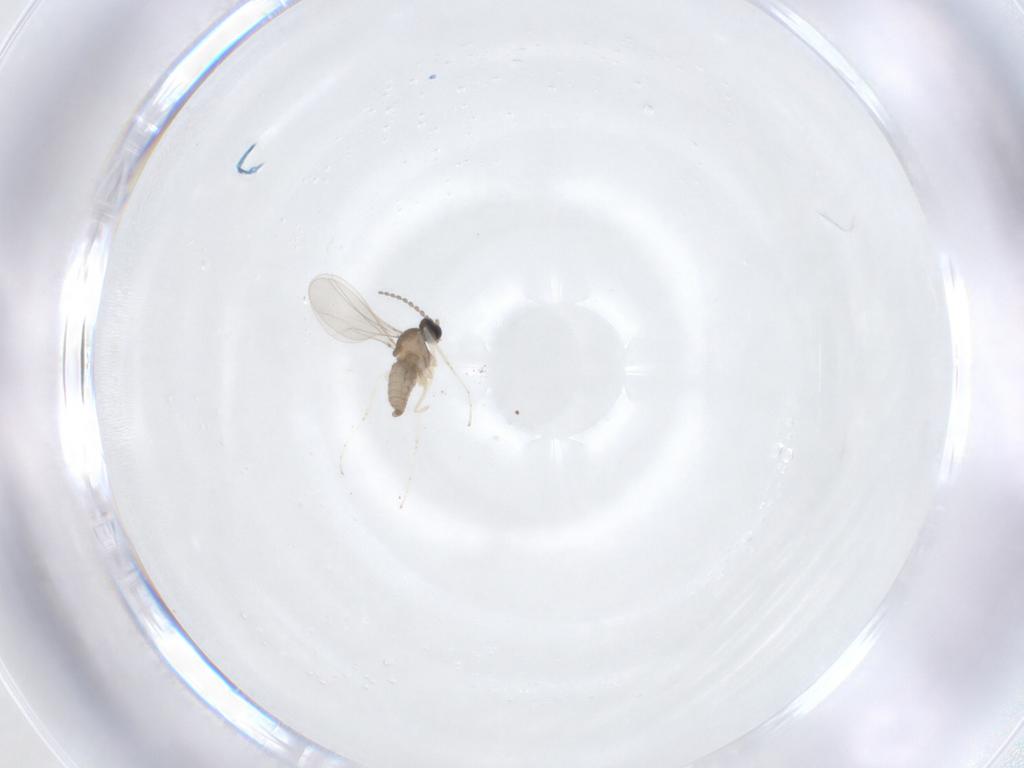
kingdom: Animalia
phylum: Arthropoda
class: Insecta
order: Diptera
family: Cecidomyiidae
